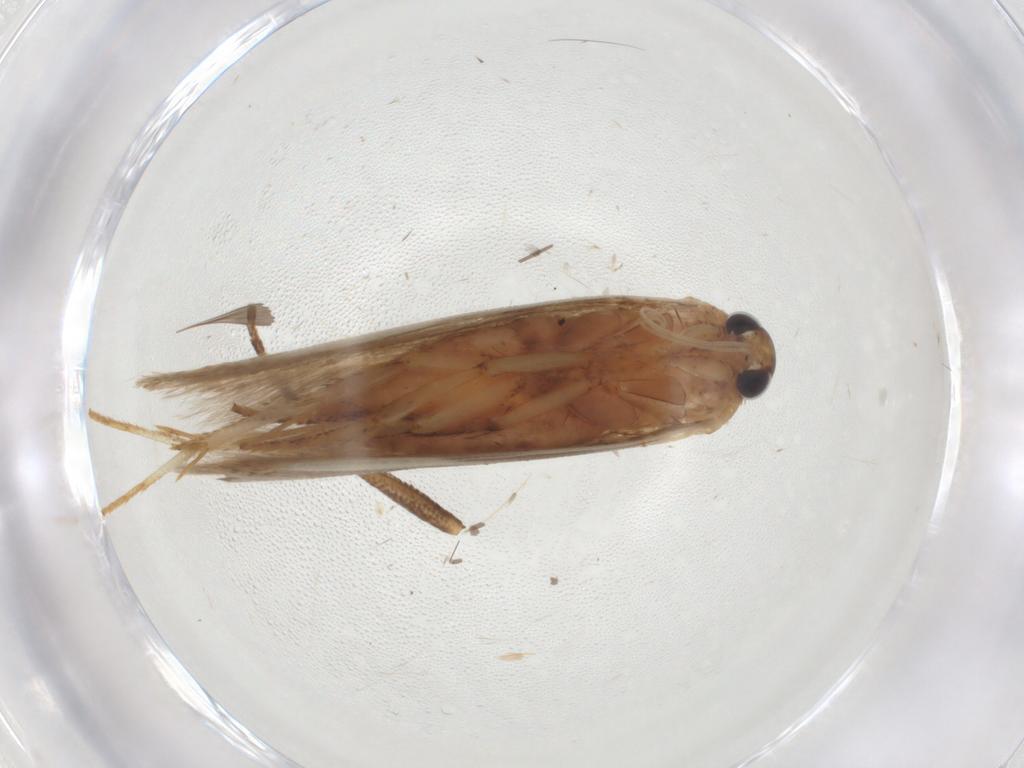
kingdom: Animalia
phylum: Arthropoda
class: Insecta
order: Lepidoptera
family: Blastobasidae
